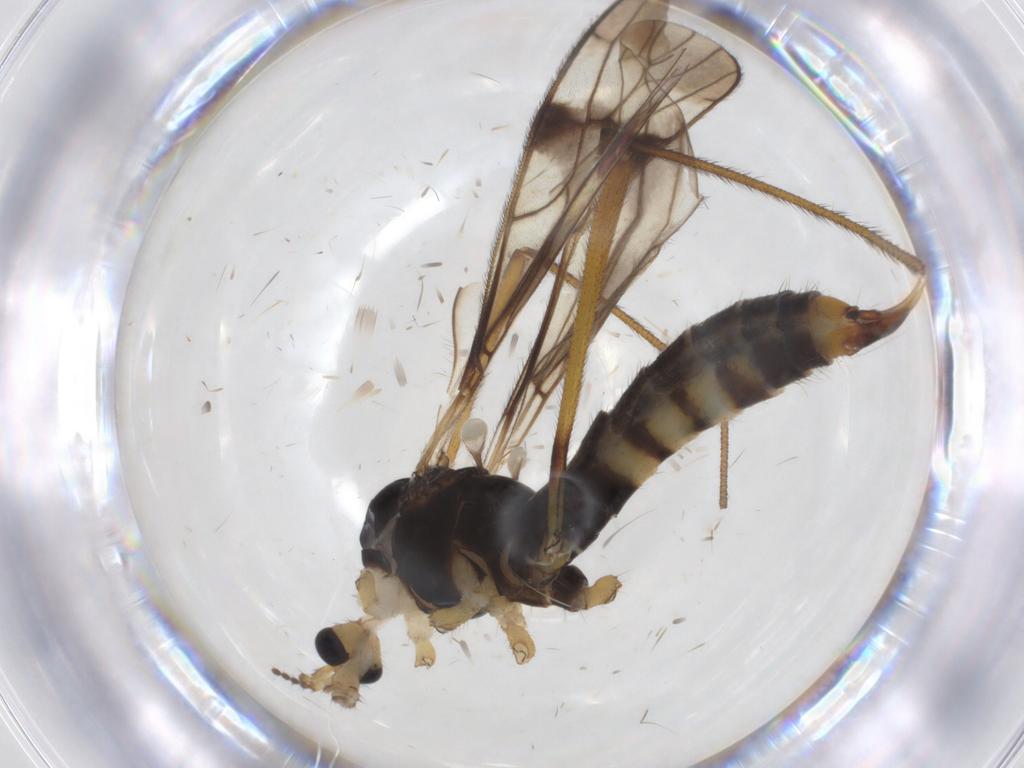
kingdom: Animalia
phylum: Arthropoda
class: Insecta
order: Diptera
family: Limoniidae
